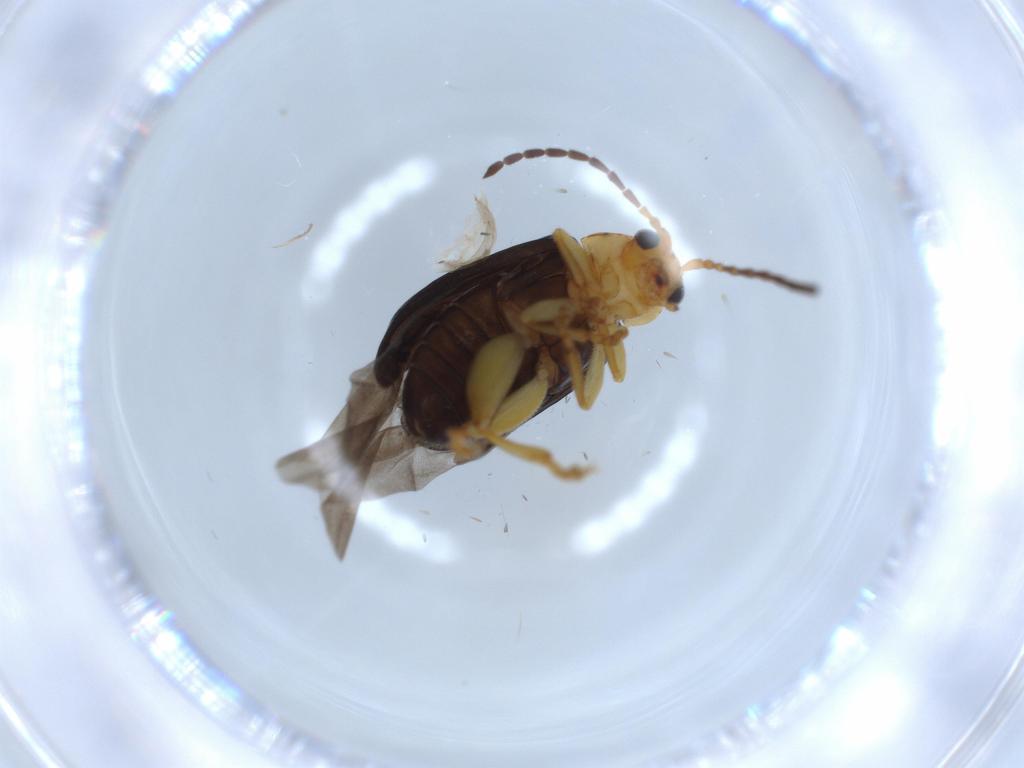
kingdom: Animalia
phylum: Arthropoda
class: Insecta
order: Coleoptera
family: Chrysomelidae
